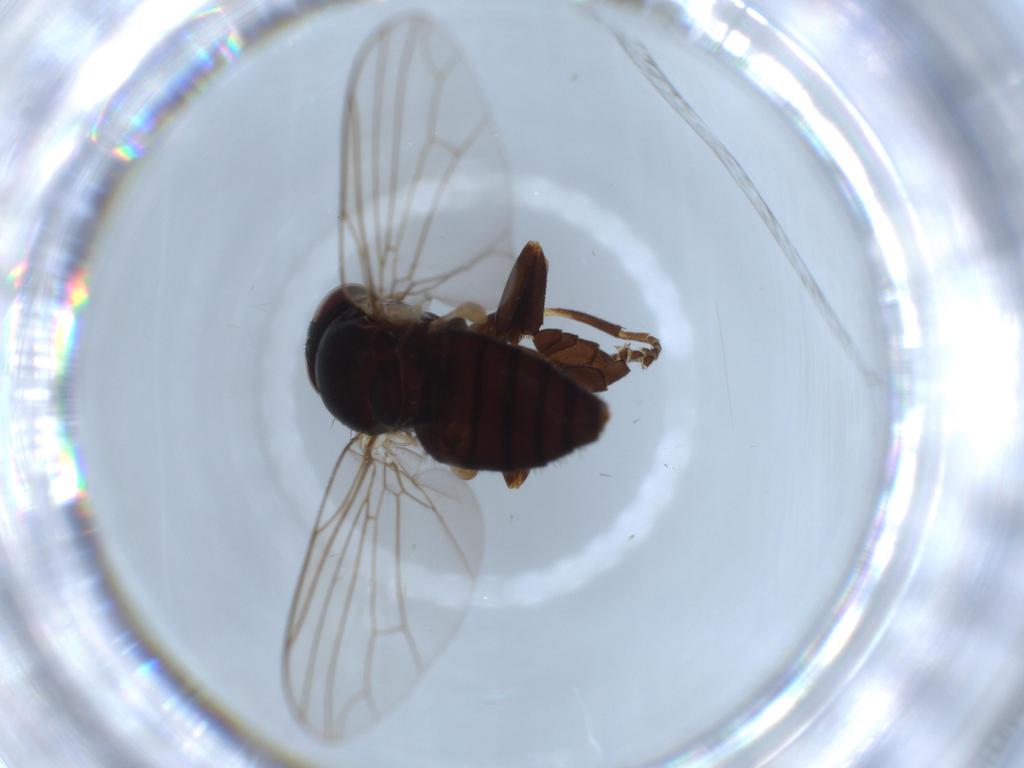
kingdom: Animalia
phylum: Arthropoda
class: Insecta
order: Diptera
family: Platypezidae
